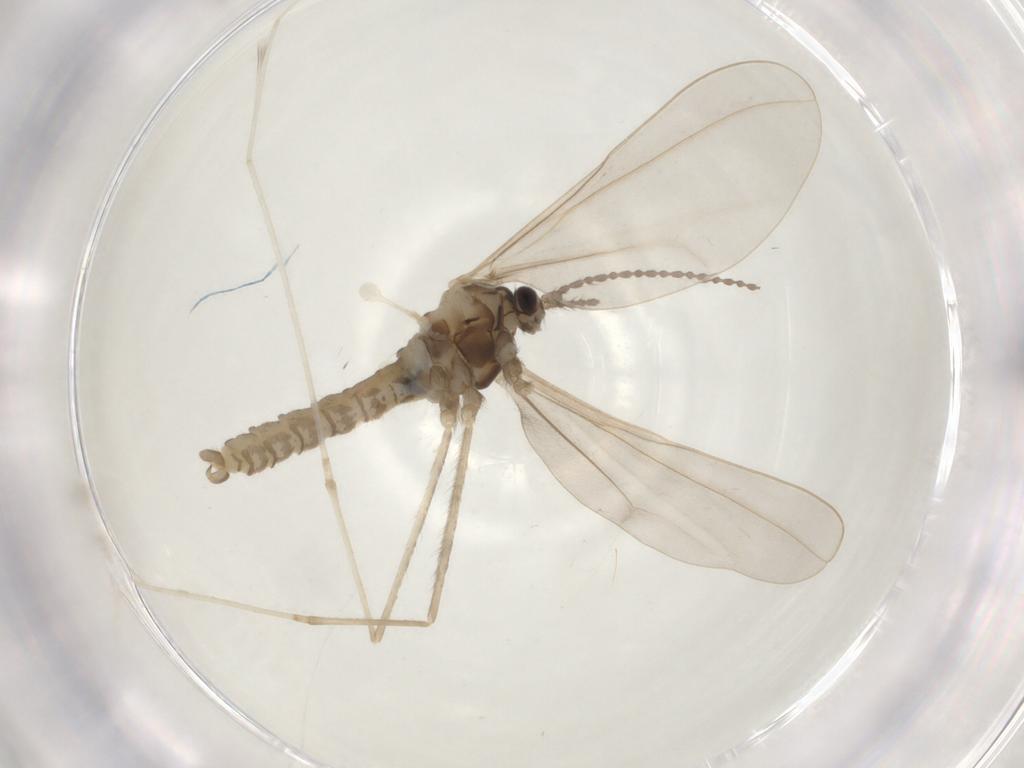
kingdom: Animalia
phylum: Arthropoda
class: Insecta
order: Diptera
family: Cecidomyiidae
